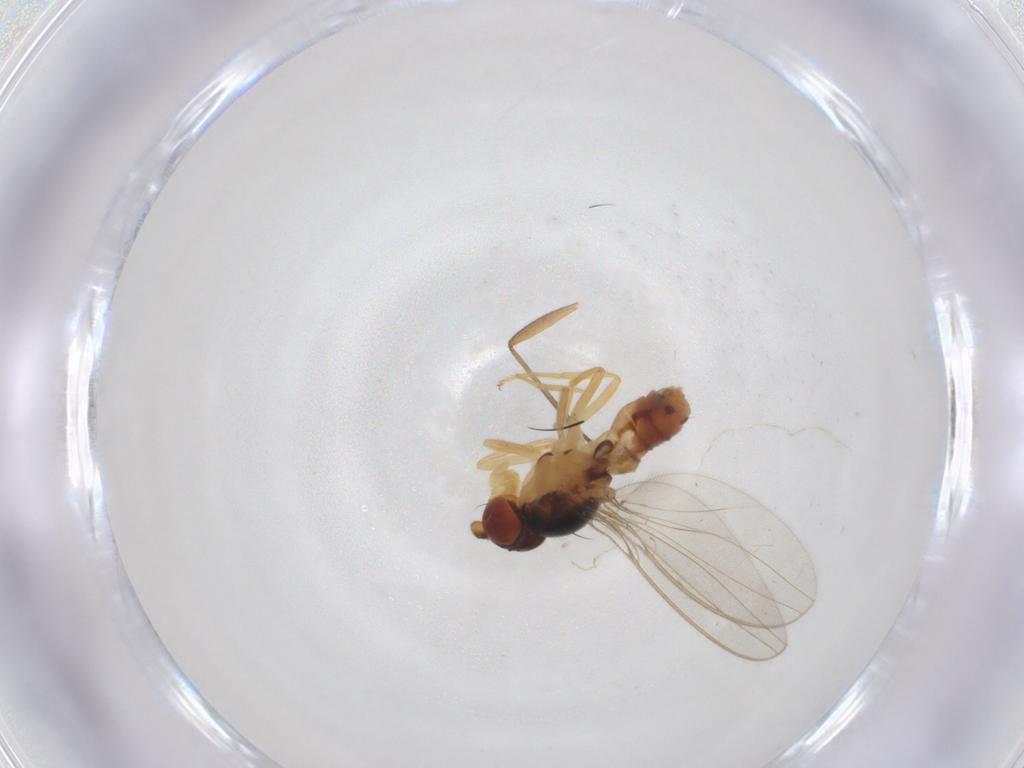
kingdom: Animalia
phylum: Arthropoda
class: Insecta
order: Diptera
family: Phoridae
